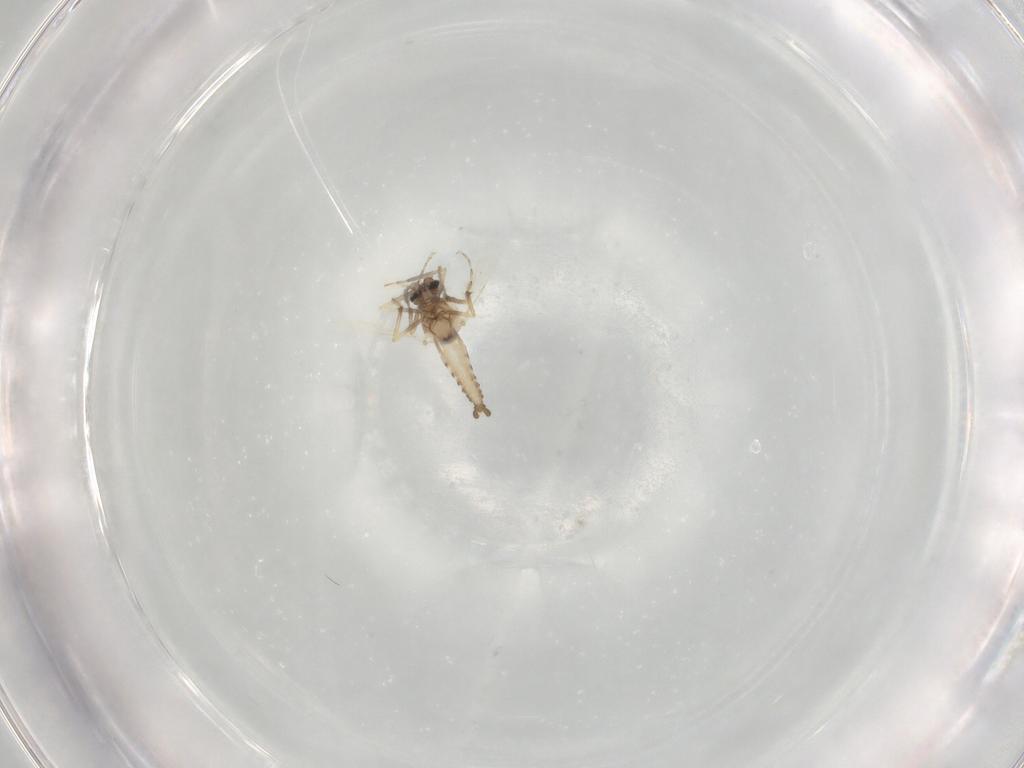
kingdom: Animalia
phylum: Arthropoda
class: Insecta
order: Diptera
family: Ceratopogonidae
